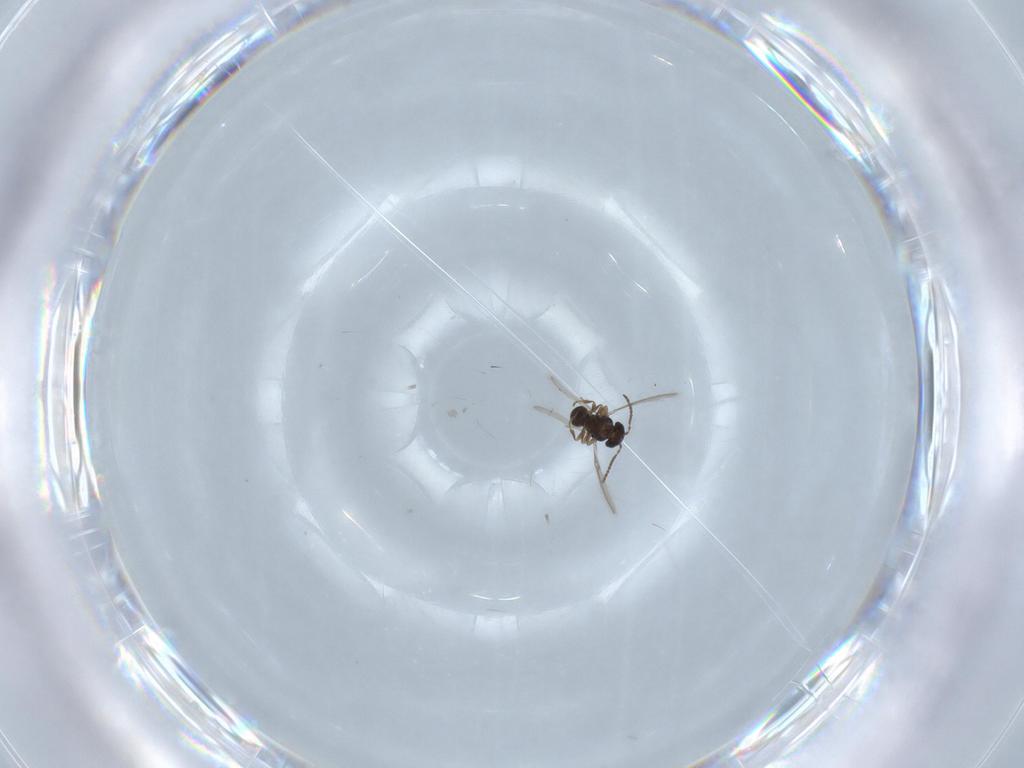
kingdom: Animalia
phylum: Arthropoda
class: Insecta
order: Hymenoptera
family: Scelionidae
